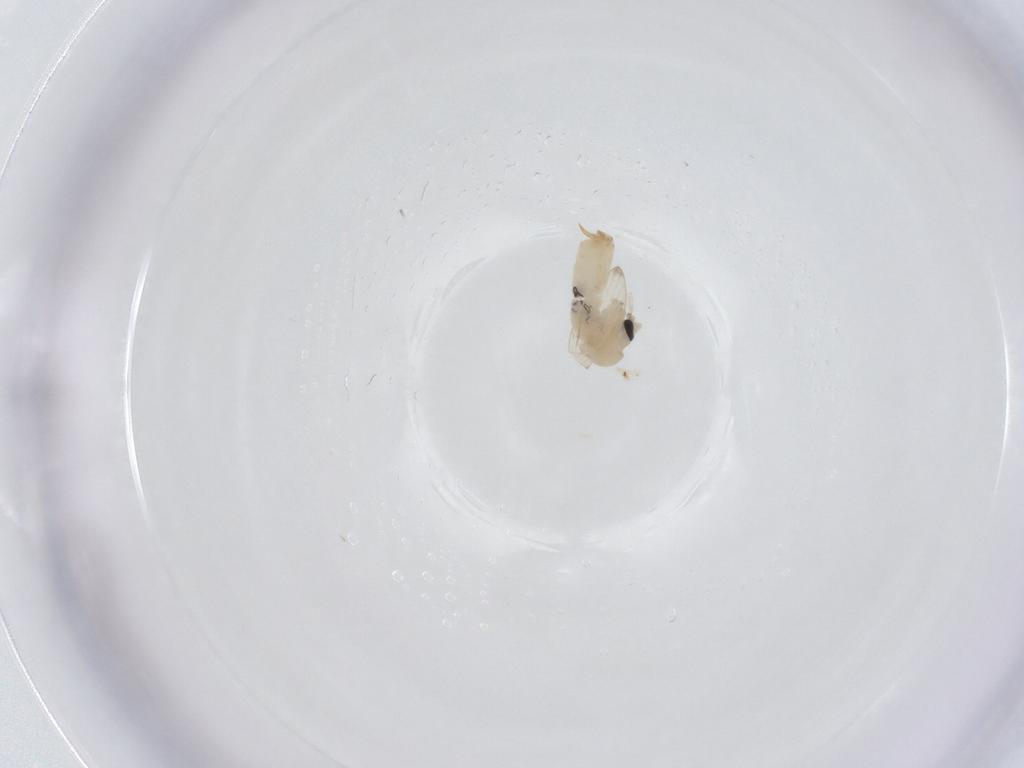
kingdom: Animalia
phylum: Arthropoda
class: Insecta
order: Diptera
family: Psychodidae
